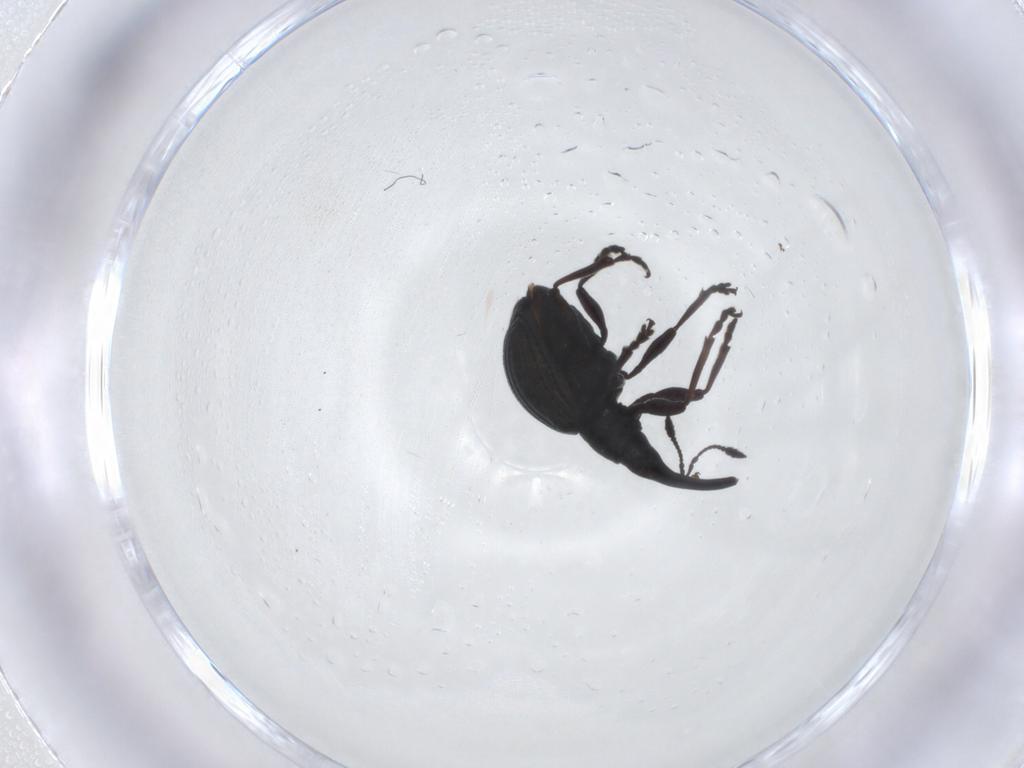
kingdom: Animalia
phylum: Arthropoda
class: Insecta
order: Coleoptera
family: Brentidae
